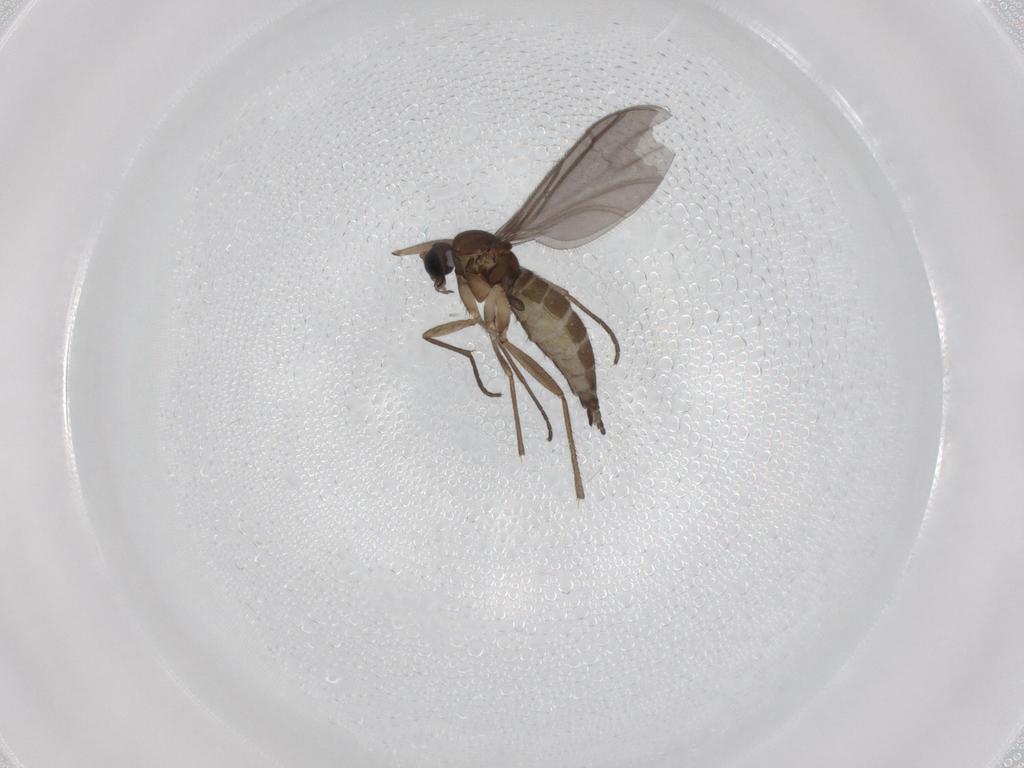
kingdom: Animalia
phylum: Arthropoda
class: Insecta
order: Diptera
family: Sciaridae
